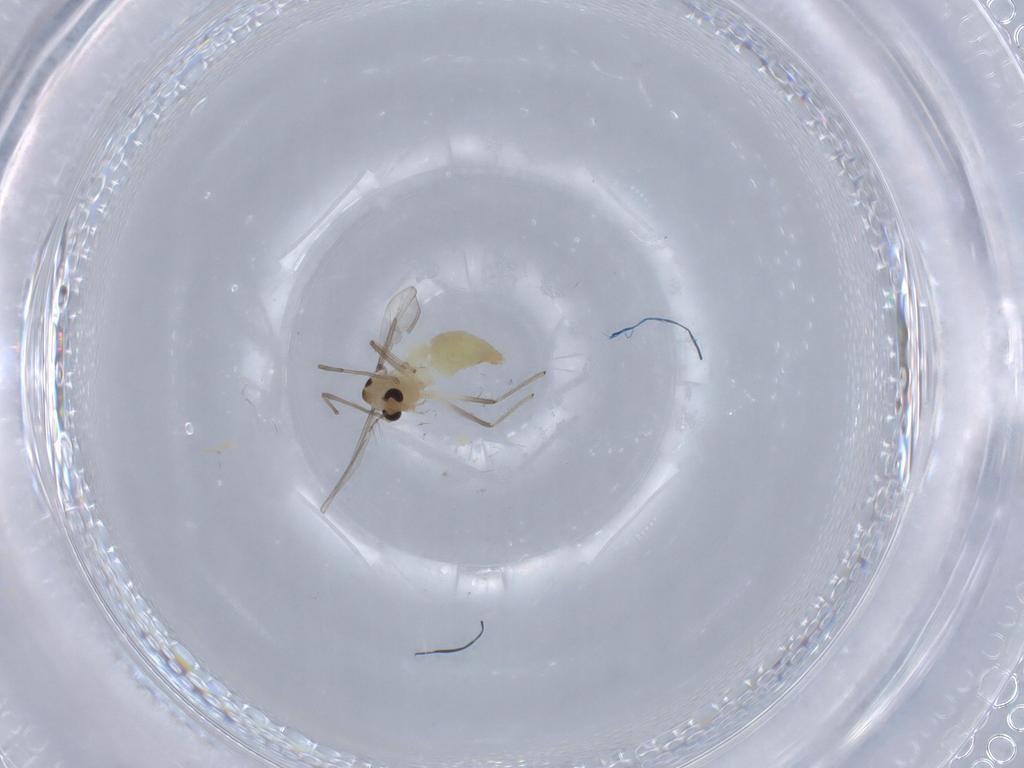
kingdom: Animalia
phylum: Arthropoda
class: Insecta
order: Diptera
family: Chironomidae
